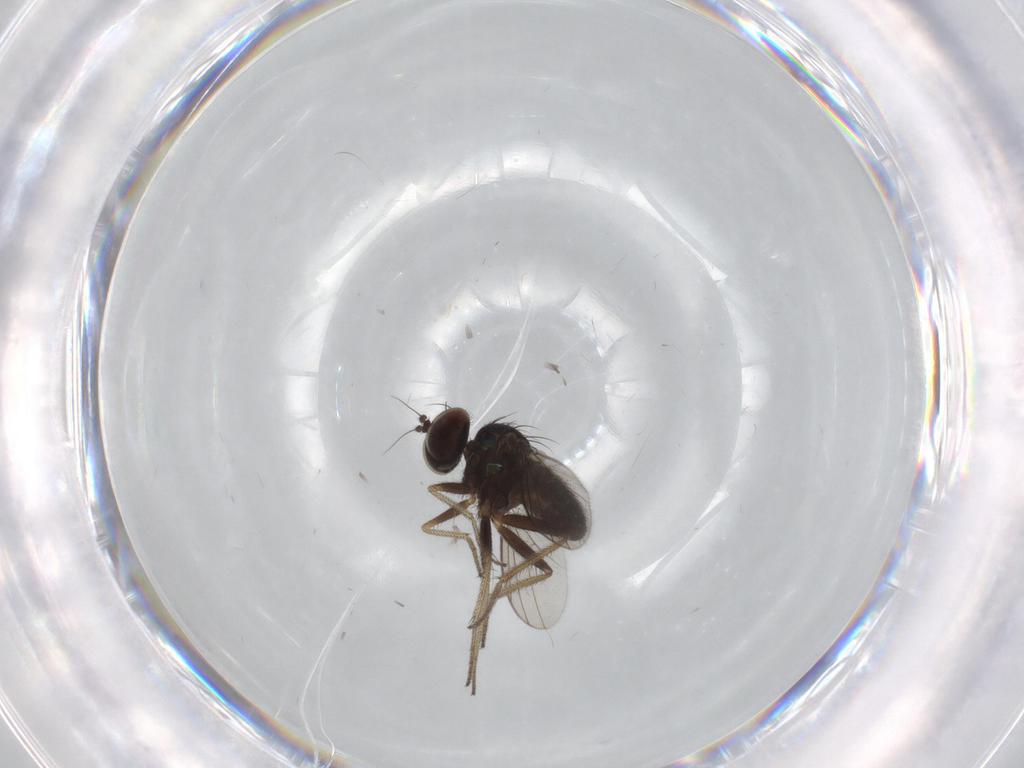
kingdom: Animalia
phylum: Arthropoda
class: Insecta
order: Diptera
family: Dolichopodidae
